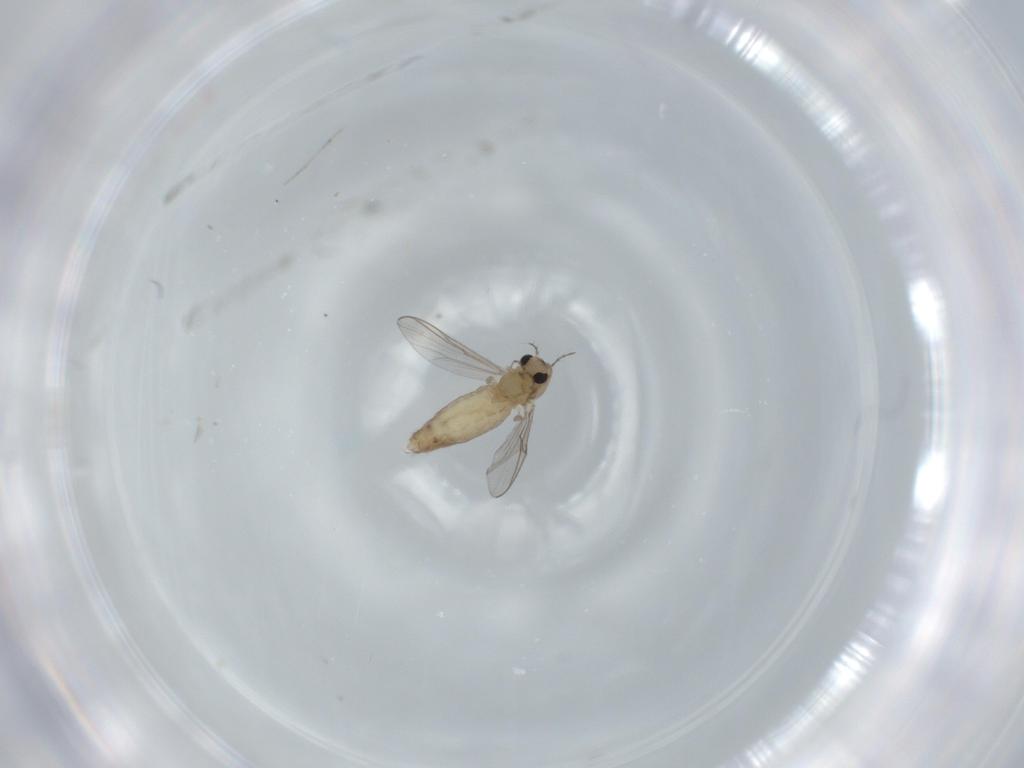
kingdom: Animalia
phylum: Arthropoda
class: Insecta
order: Diptera
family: Chironomidae
